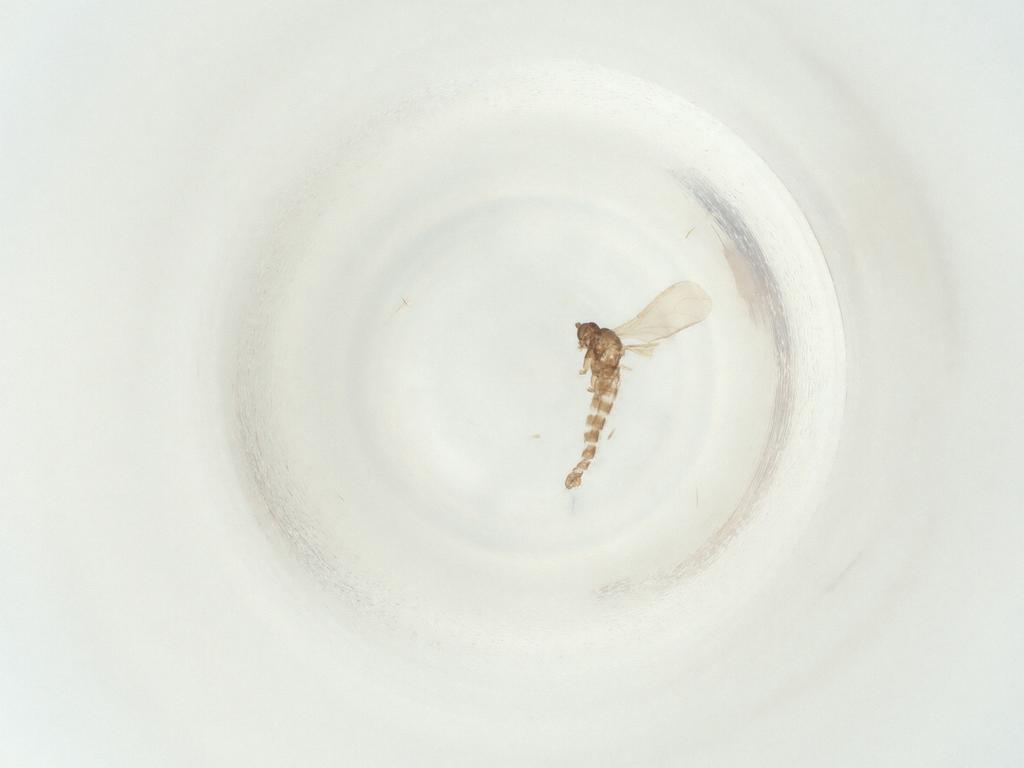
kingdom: Animalia
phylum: Arthropoda
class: Insecta
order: Diptera
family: Sciaridae
